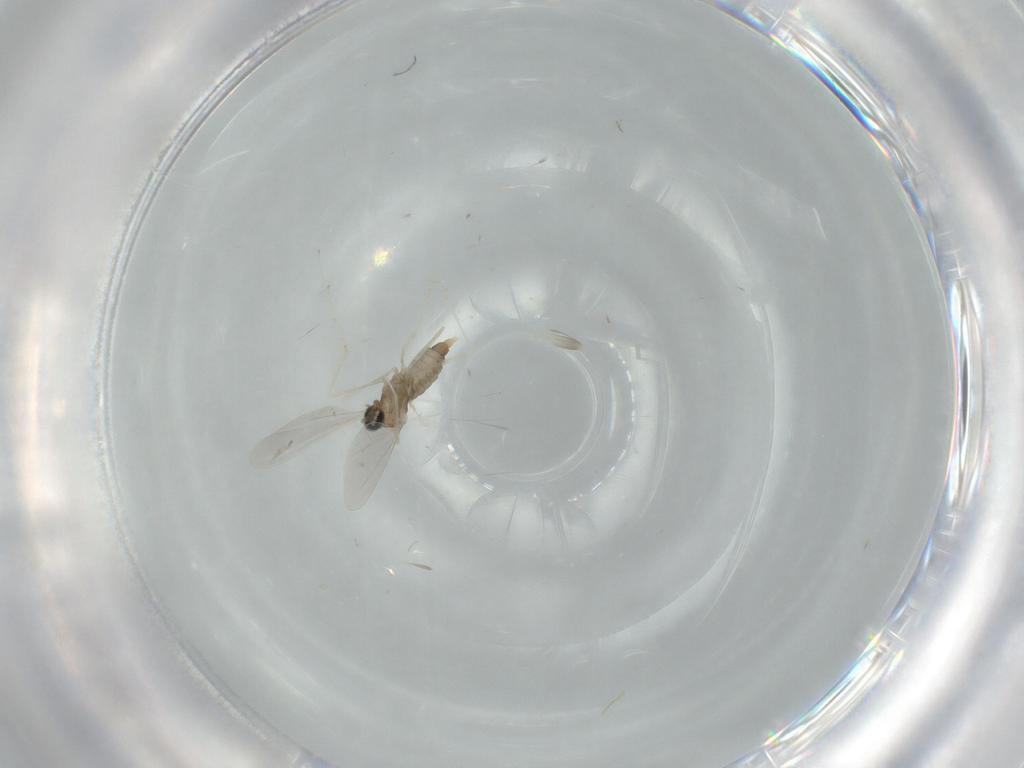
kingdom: Animalia
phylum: Arthropoda
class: Insecta
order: Diptera
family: Cecidomyiidae
